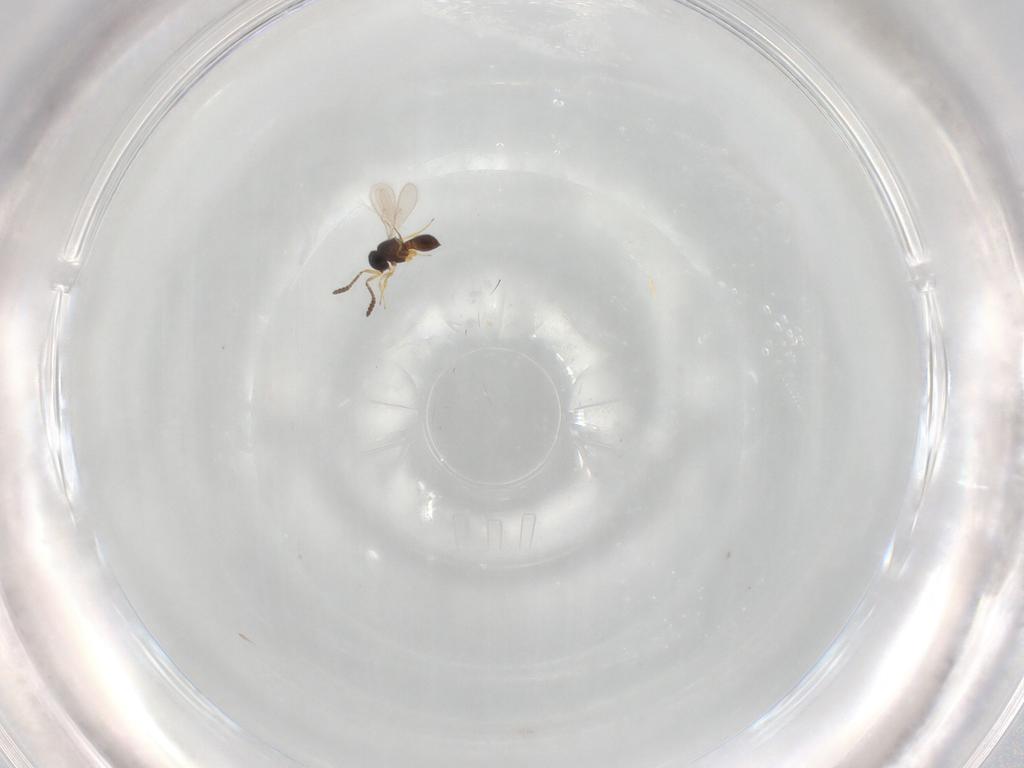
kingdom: Animalia
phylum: Arthropoda
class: Insecta
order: Hymenoptera
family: Scelionidae
